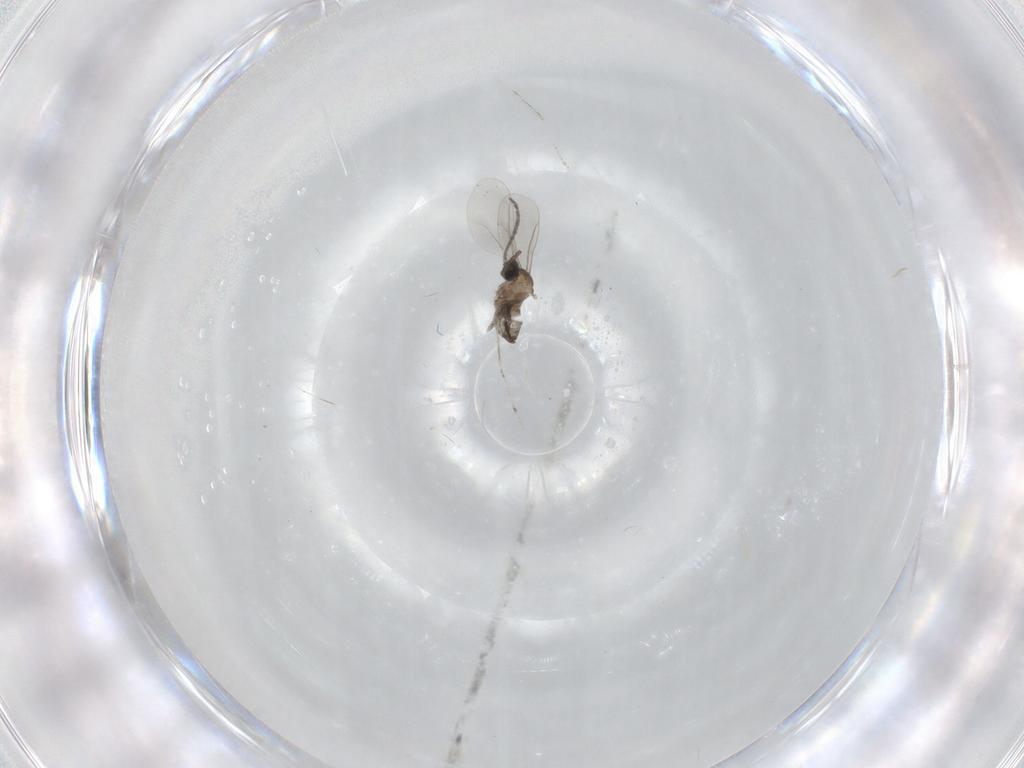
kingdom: Animalia
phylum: Arthropoda
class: Insecta
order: Diptera
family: Cecidomyiidae
